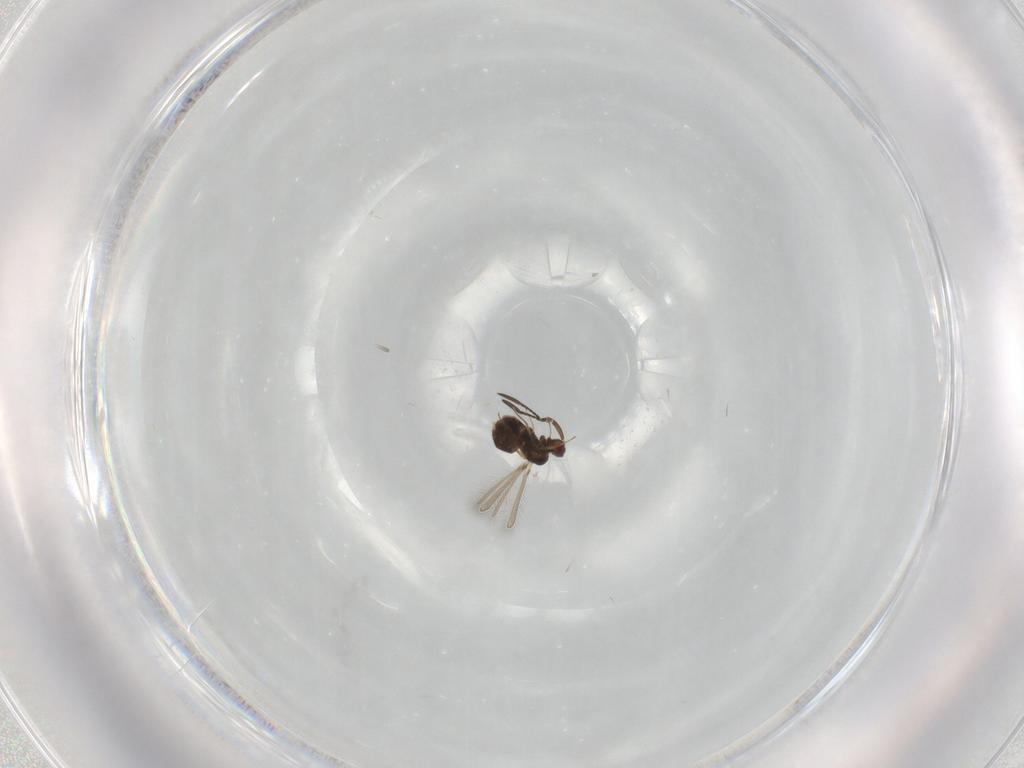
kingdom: Animalia
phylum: Arthropoda
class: Insecta
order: Hymenoptera
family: Mymaridae
